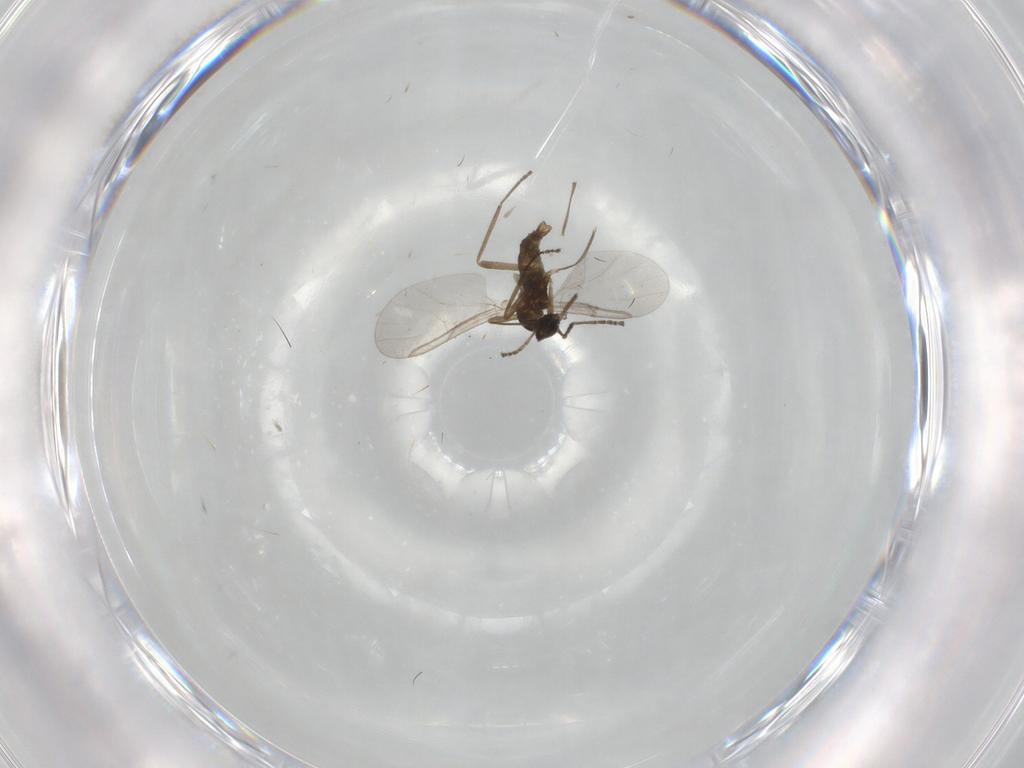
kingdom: Animalia
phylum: Arthropoda
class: Insecta
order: Diptera
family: Cecidomyiidae
